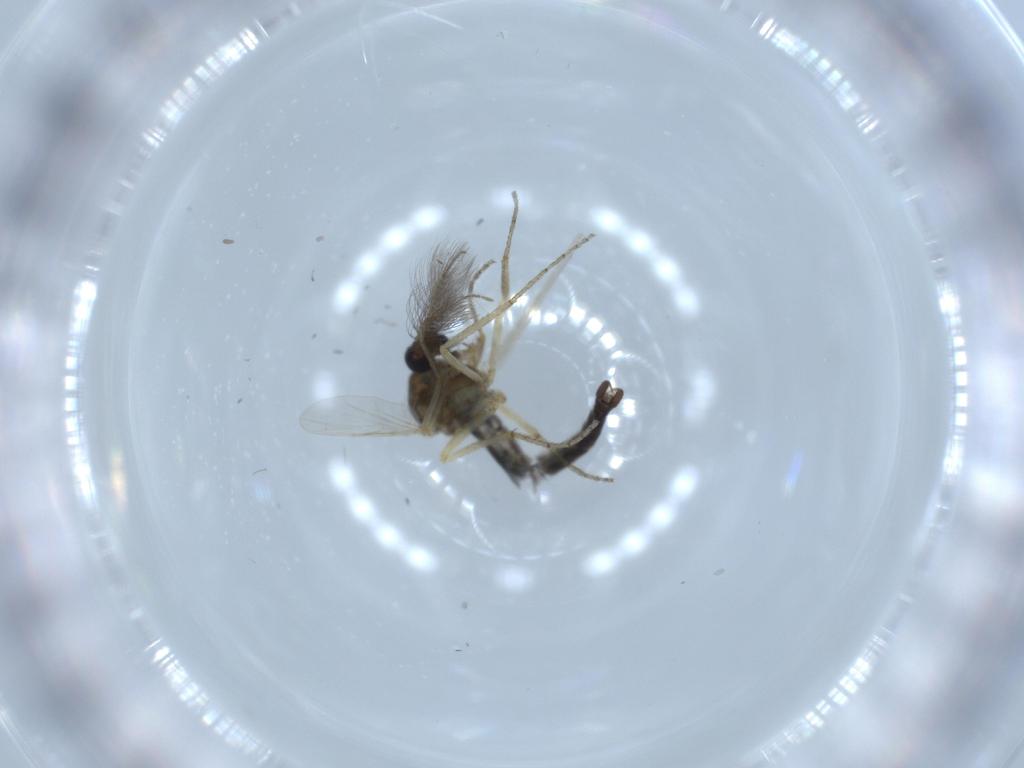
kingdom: Animalia
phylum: Arthropoda
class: Insecta
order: Diptera
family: Ceratopogonidae
